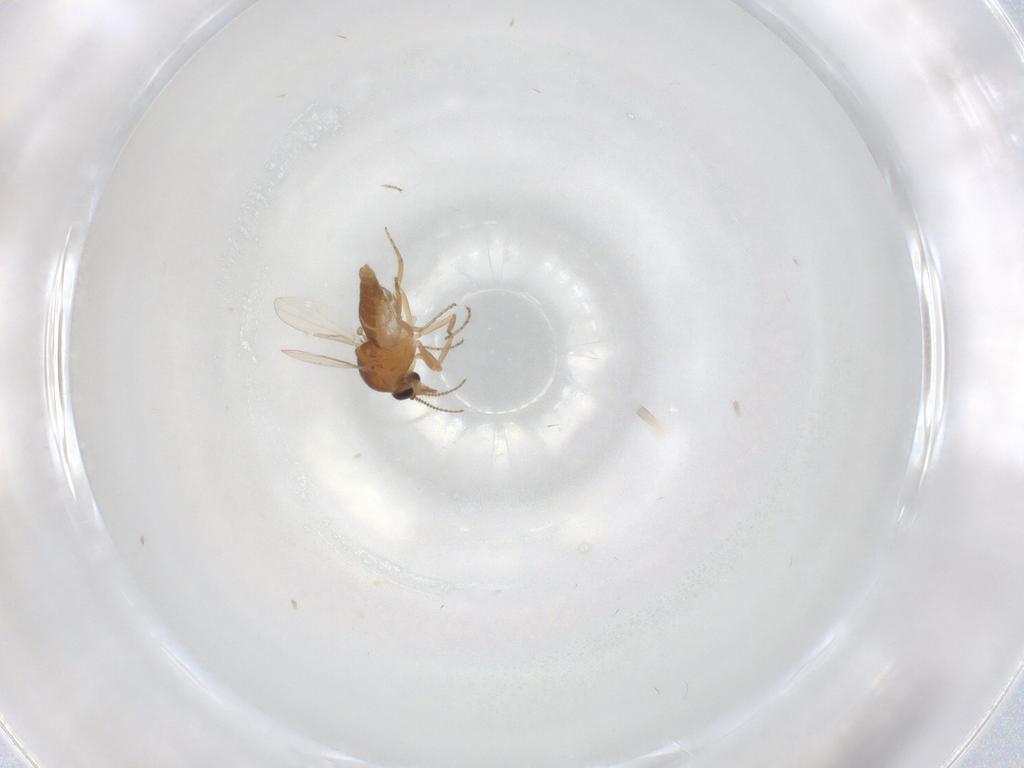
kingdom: Animalia
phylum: Arthropoda
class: Insecta
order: Diptera
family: Ceratopogonidae
